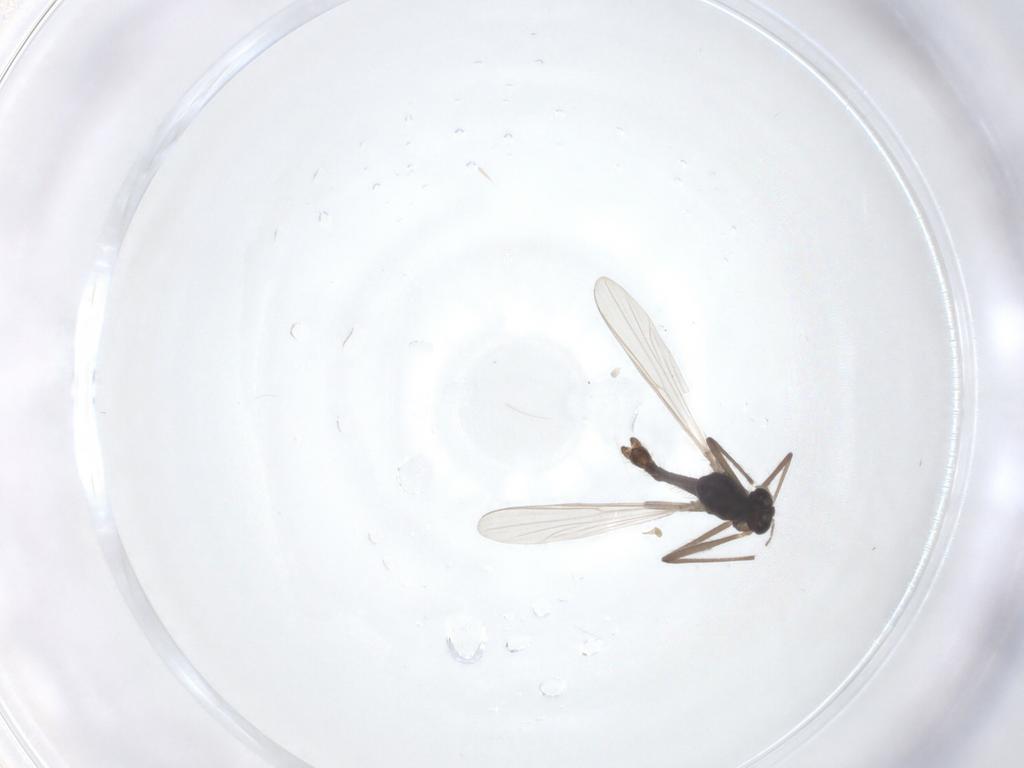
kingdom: Animalia
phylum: Arthropoda
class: Insecta
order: Diptera
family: Chironomidae
